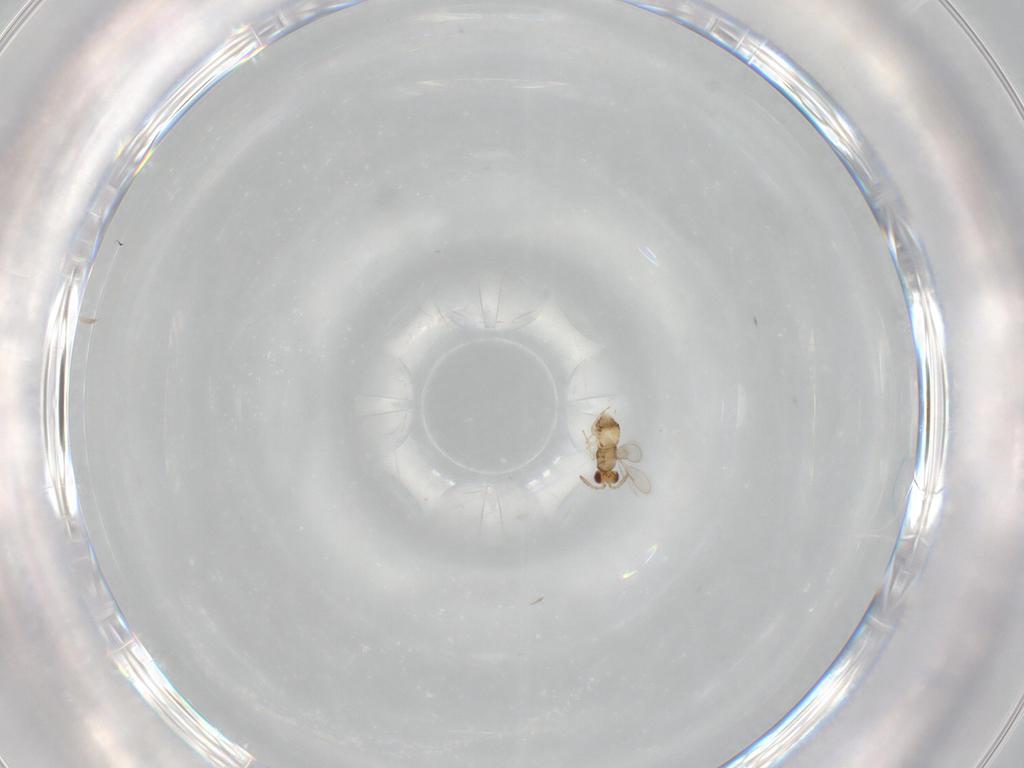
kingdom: Animalia
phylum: Arthropoda
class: Insecta
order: Hymenoptera
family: Aphelinidae
